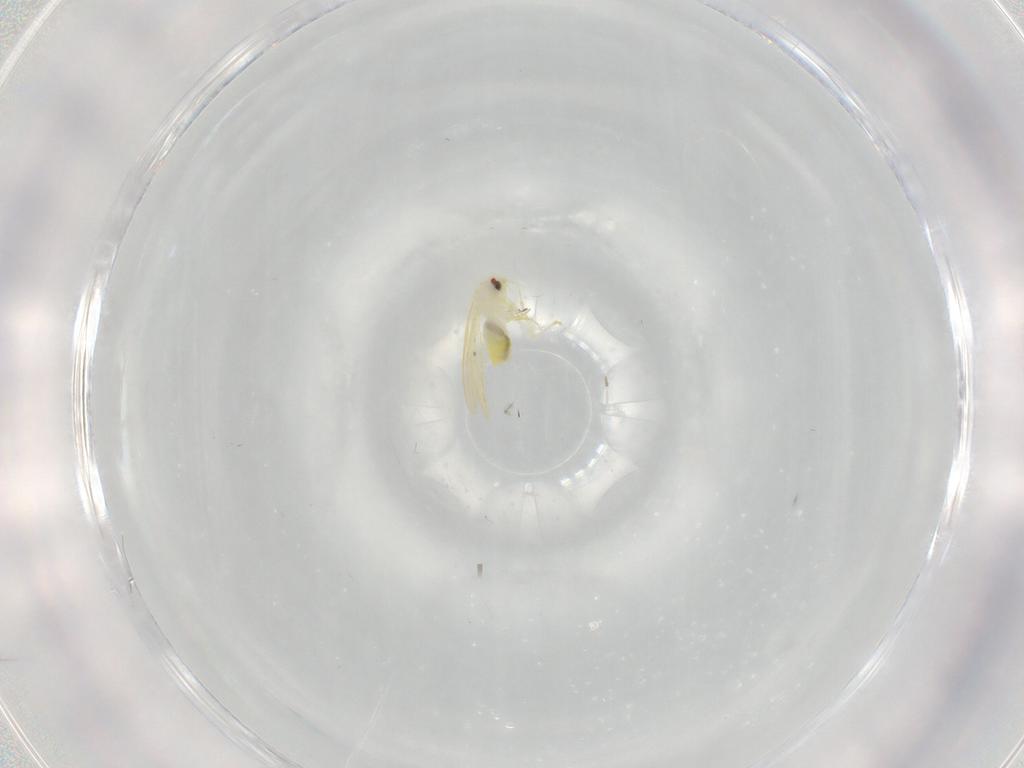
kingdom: Animalia
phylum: Arthropoda
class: Insecta
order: Hemiptera
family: Aleyrodidae
